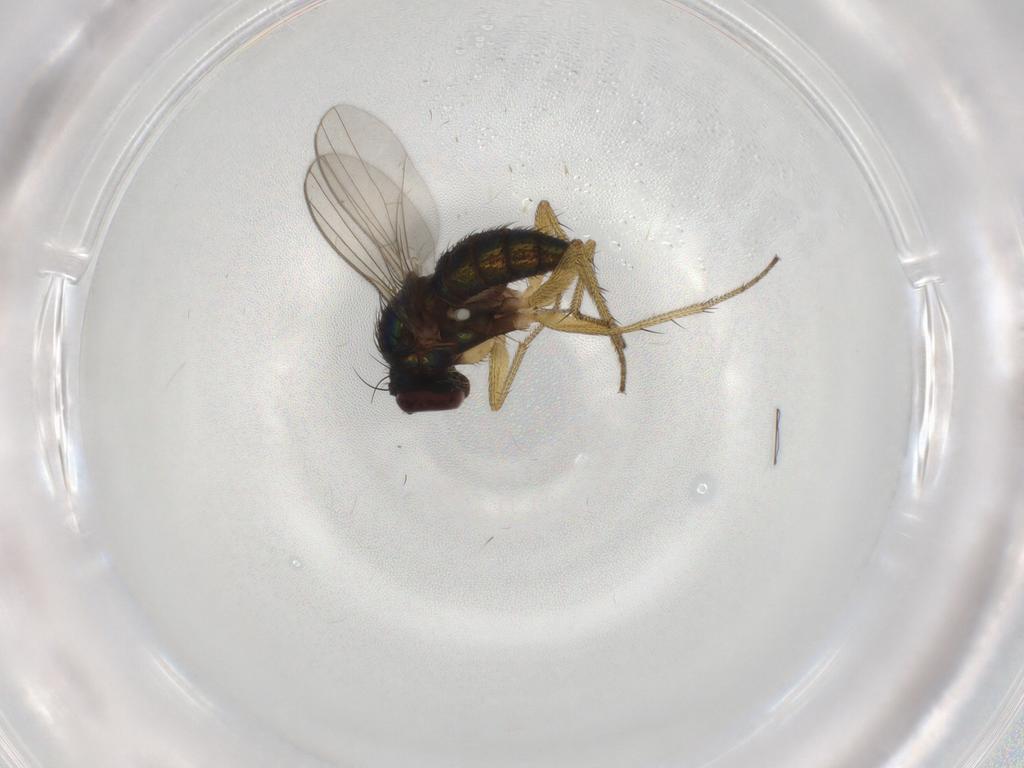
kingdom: Animalia
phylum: Arthropoda
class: Insecta
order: Diptera
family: Dolichopodidae
